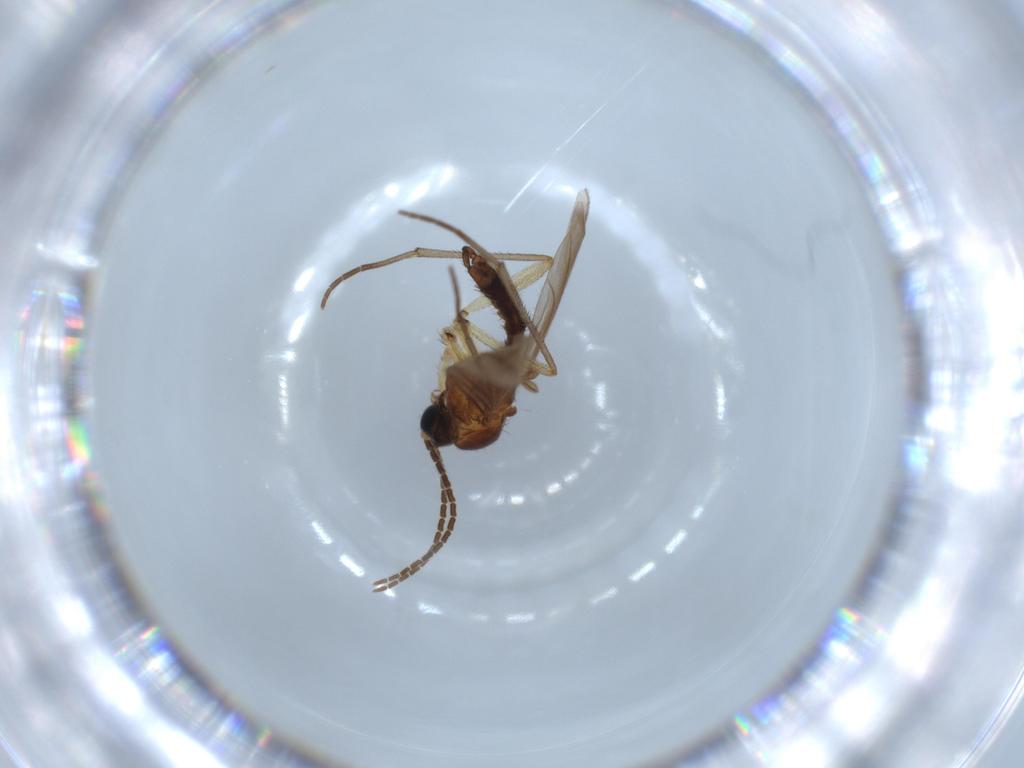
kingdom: Animalia
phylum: Arthropoda
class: Insecta
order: Diptera
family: Sciaridae
